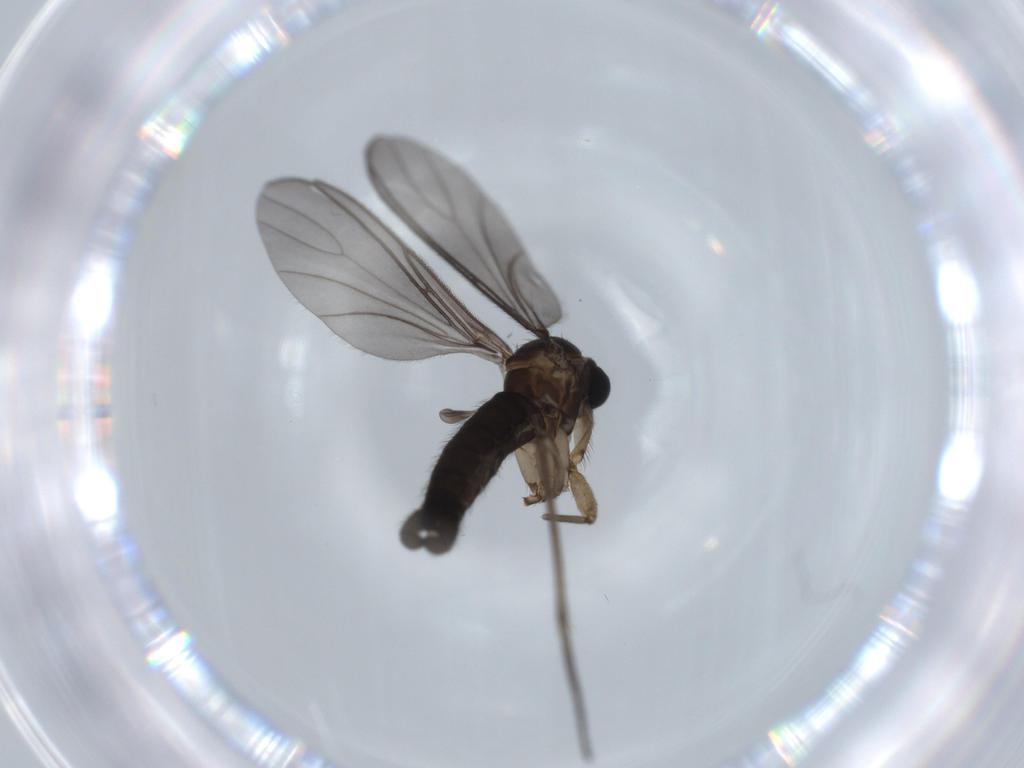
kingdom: Animalia
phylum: Arthropoda
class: Insecta
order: Diptera
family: Sciaridae
